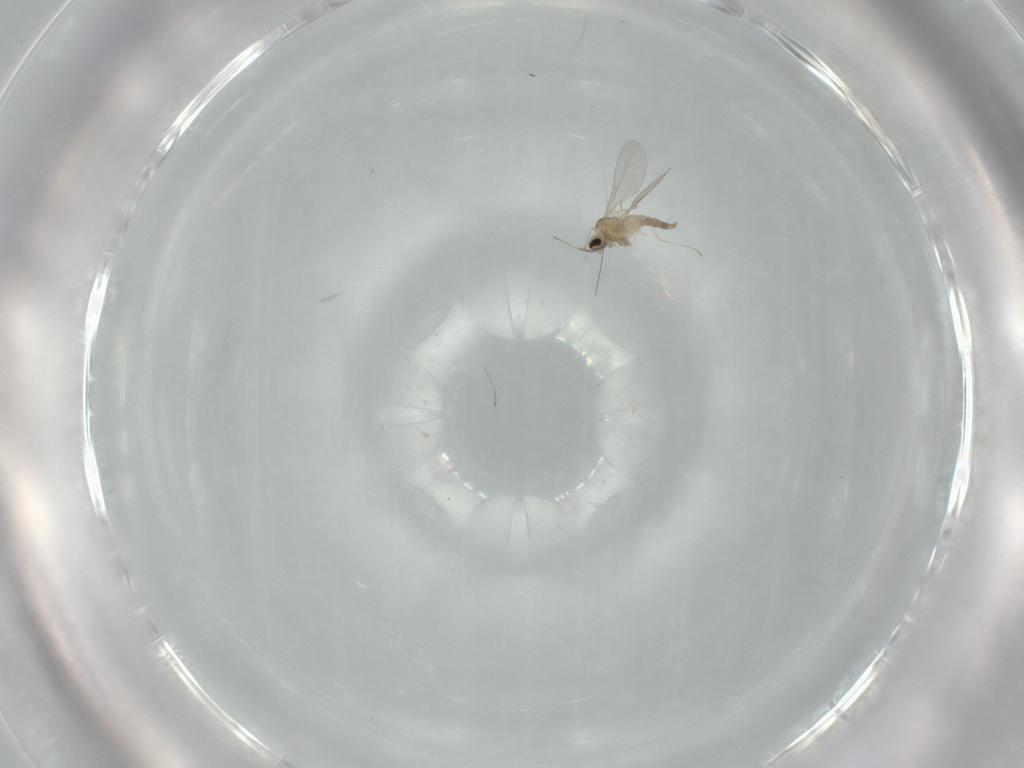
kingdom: Animalia
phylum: Arthropoda
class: Insecta
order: Diptera
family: Cecidomyiidae
